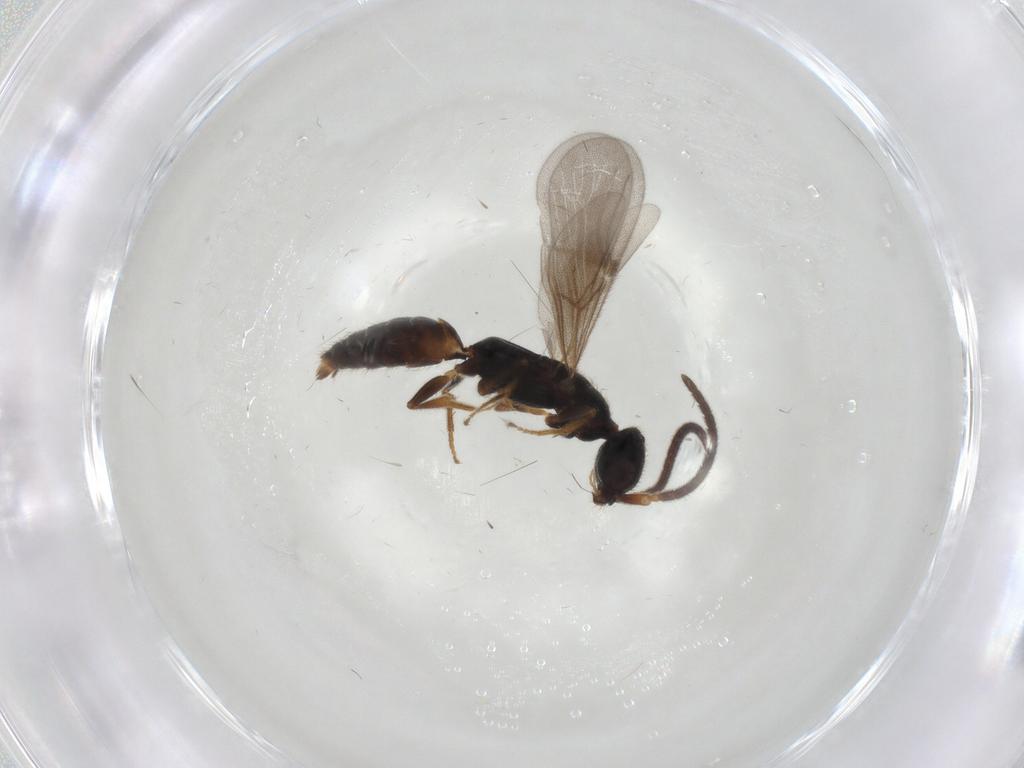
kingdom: Animalia
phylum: Arthropoda
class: Insecta
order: Hymenoptera
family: Bethylidae
